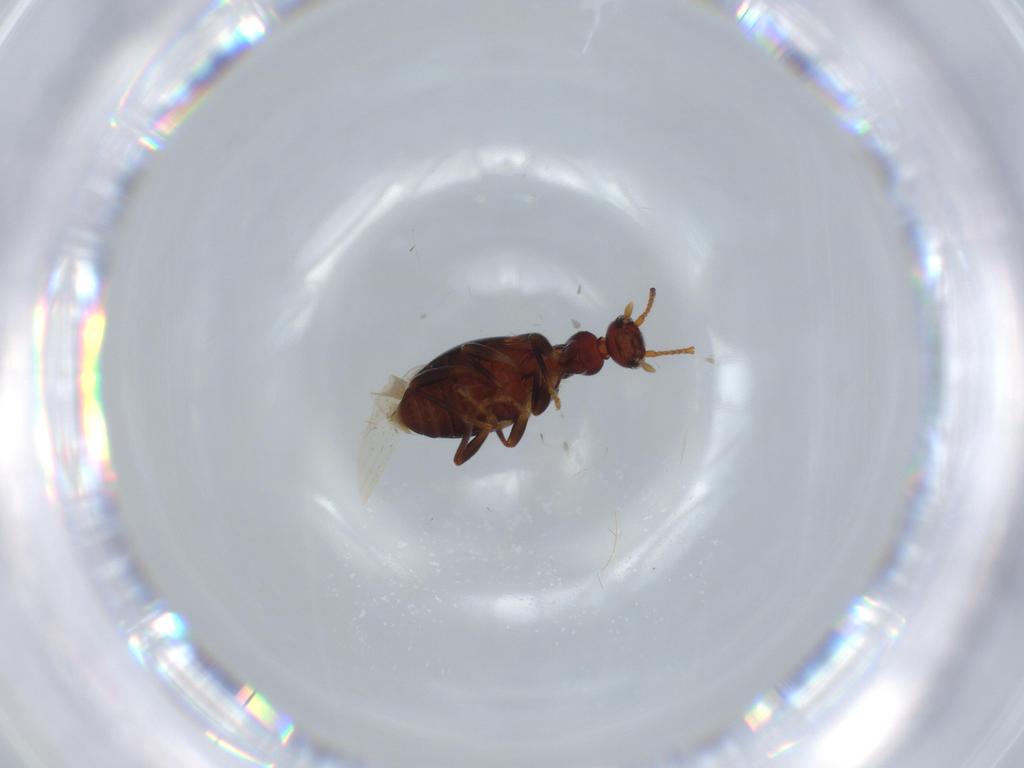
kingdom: Animalia
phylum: Arthropoda
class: Insecta
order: Coleoptera
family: Anthicidae
